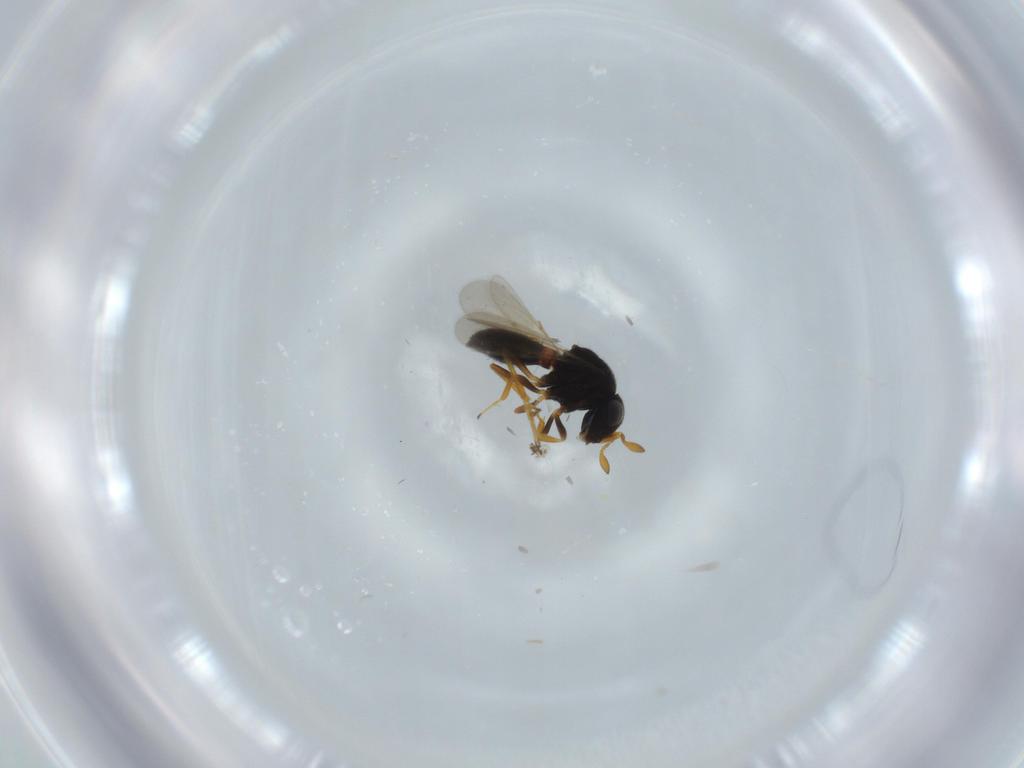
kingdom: Animalia
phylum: Arthropoda
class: Insecta
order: Hymenoptera
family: Scelionidae
